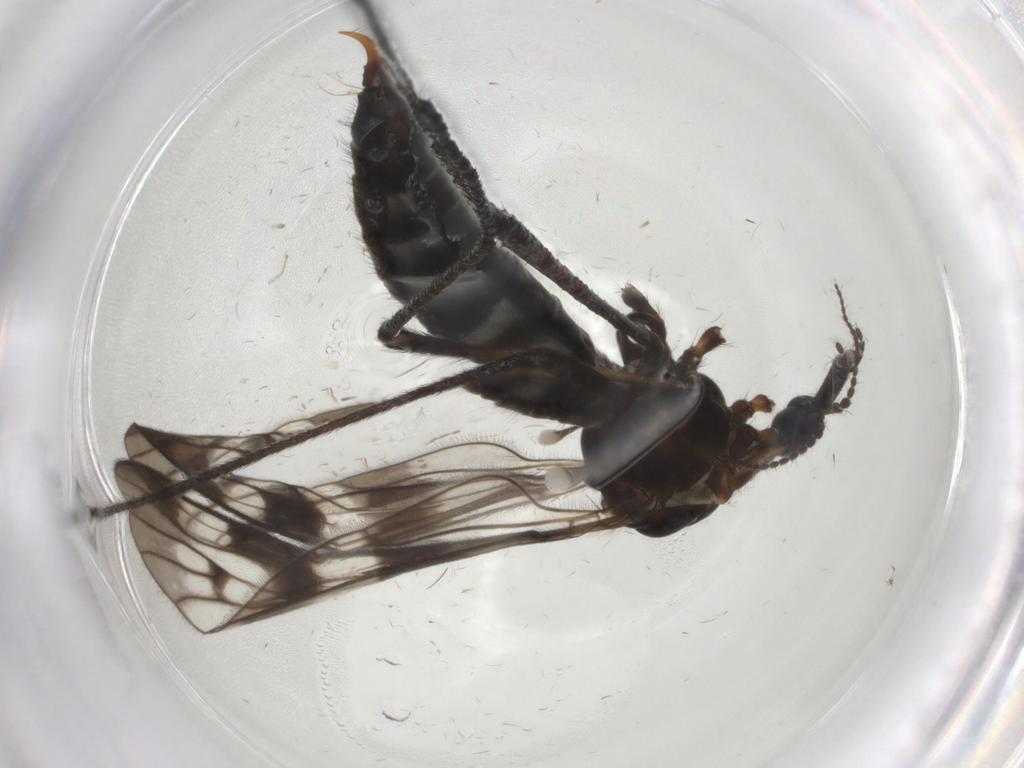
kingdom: Animalia
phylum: Arthropoda
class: Insecta
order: Diptera
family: Limoniidae
